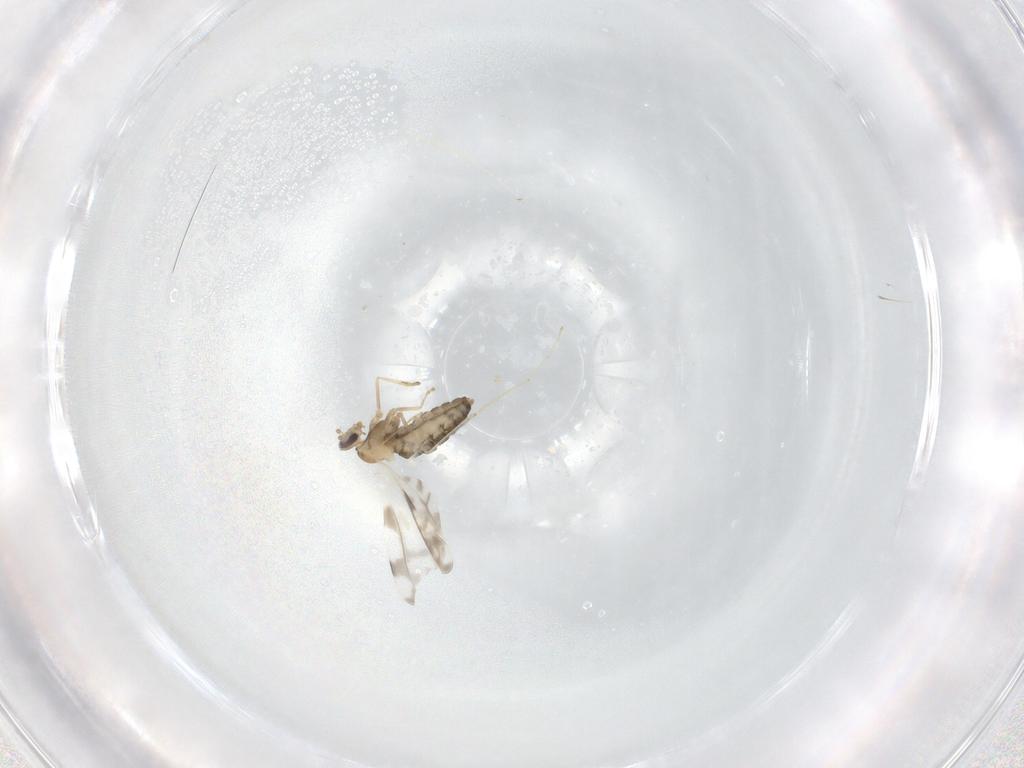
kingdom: Animalia
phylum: Arthropoda
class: Insecta
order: Diptera
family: Cecidomyiidae
